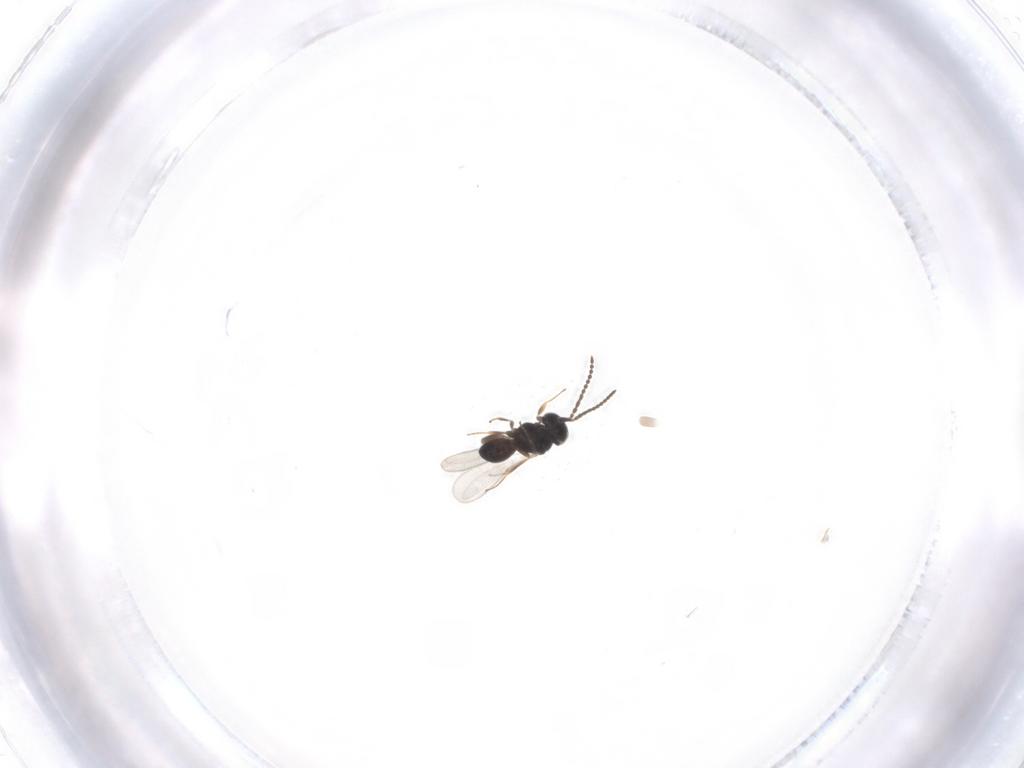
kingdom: Animalia
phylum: Arthropoda
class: Insecta
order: Hymenoptera
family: Scelionidae
